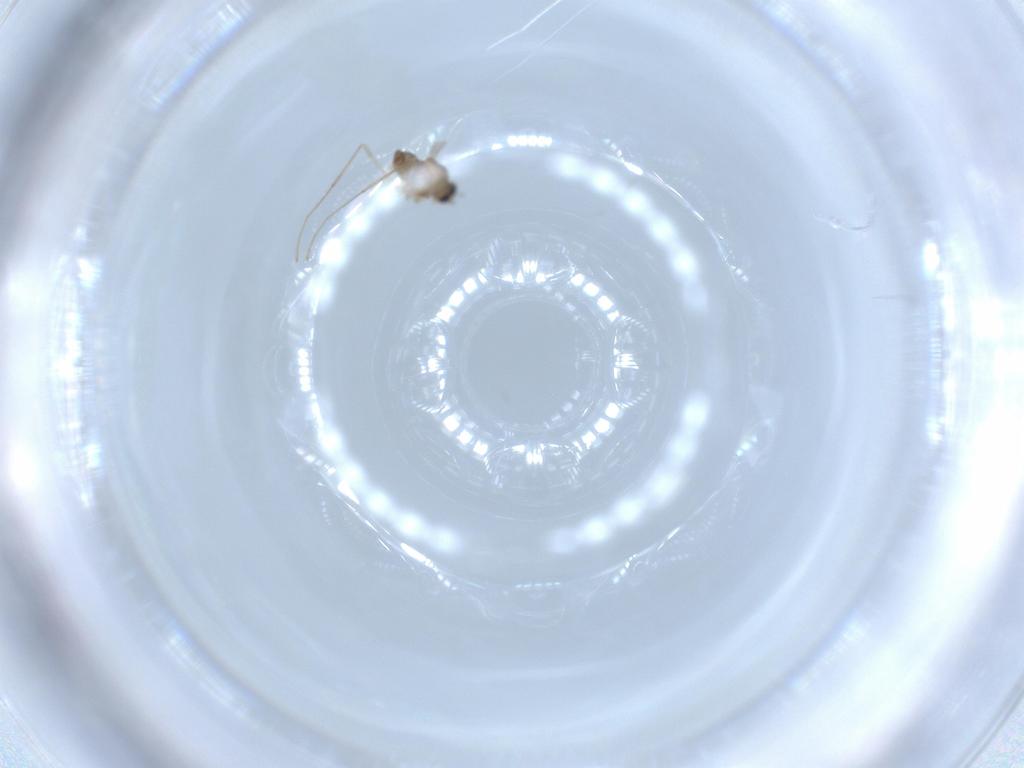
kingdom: Animalia
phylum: Arthropoda
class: Insecta
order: Diptera
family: Cecidomyiidae
